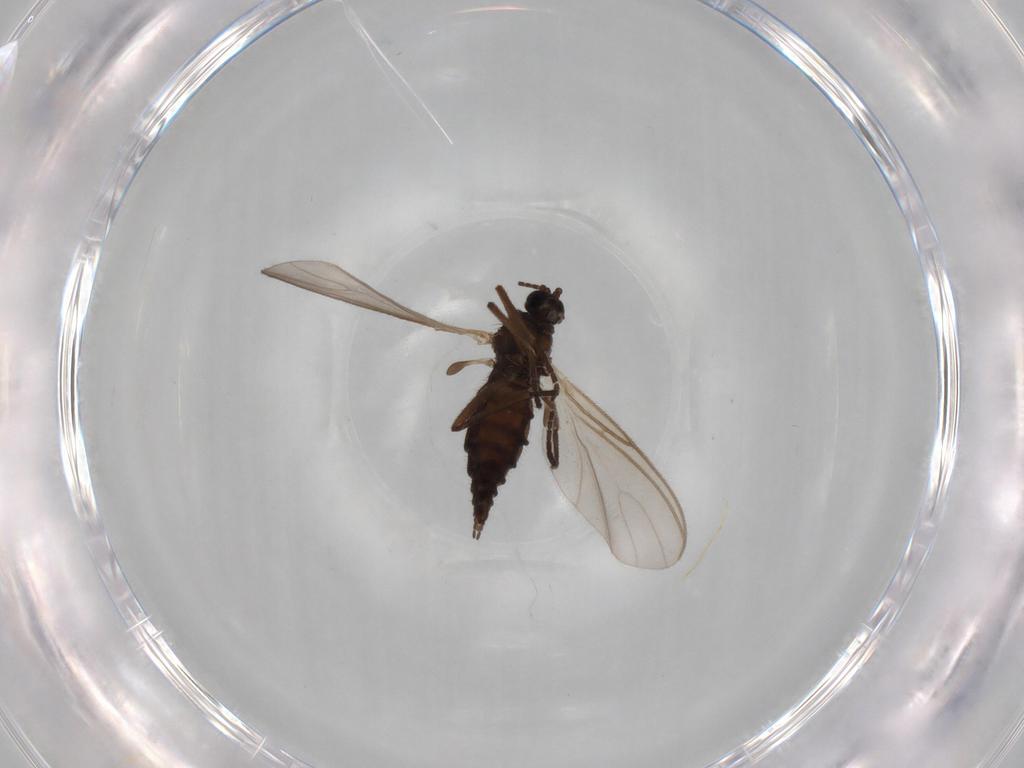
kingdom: Animalia
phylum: Arthropoda
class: Insecta
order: Diptera
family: Sciaridae
